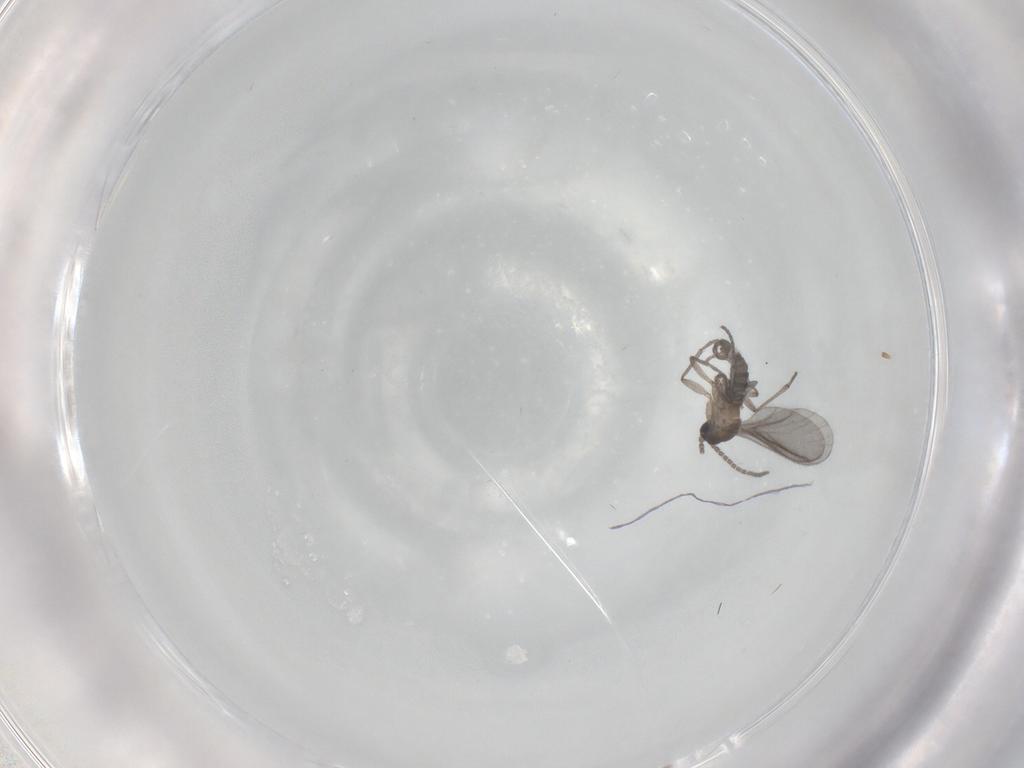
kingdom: Animalia
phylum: Arthropoda
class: Insecta
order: Diptera
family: Sciaridae
